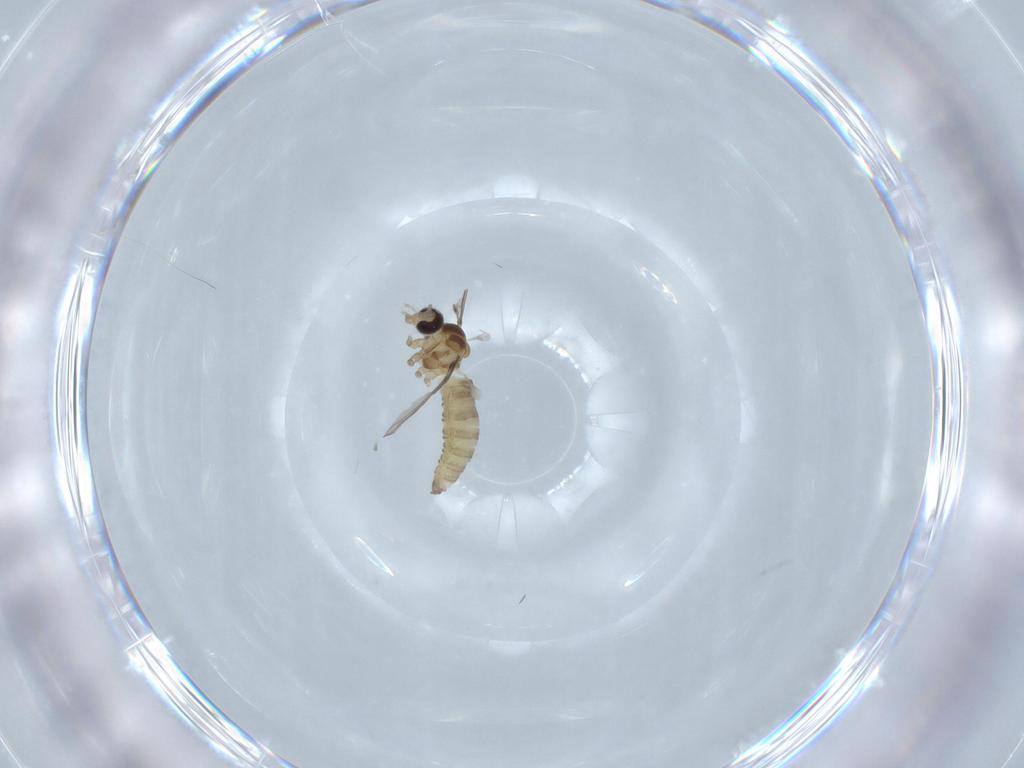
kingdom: Animalia
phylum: Arthropoda
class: Insecta
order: Diptera
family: Cecidomyiidae
